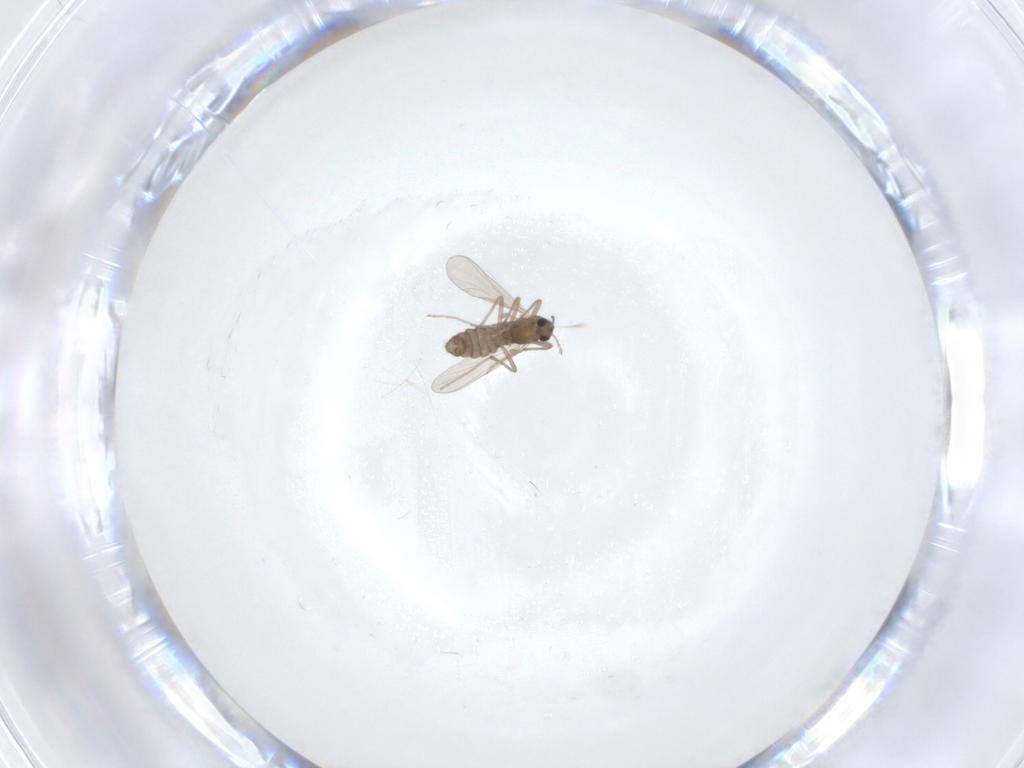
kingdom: Animalia
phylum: Arthropoda
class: Insecta
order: Diptera
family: Chironomidae
